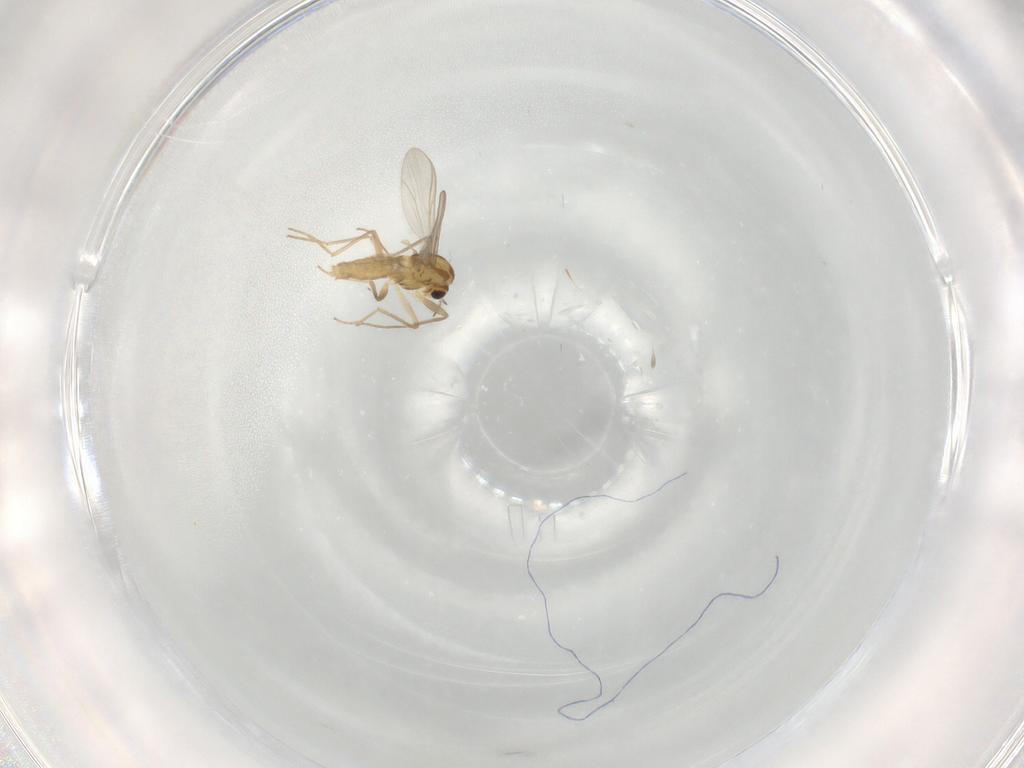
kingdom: Animalia
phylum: Arthropoda
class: Insecta
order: Diptera
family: Chironomidae
